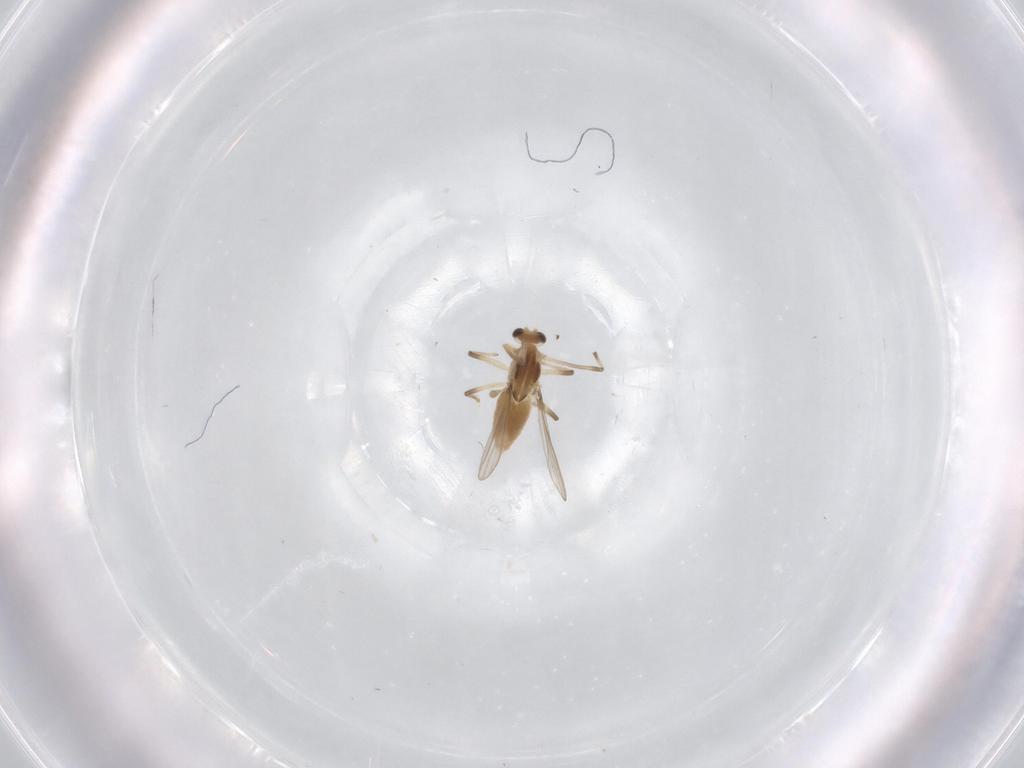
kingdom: Animalia
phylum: Arthropoda
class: Insecta
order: Diptera
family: Chironomidae
